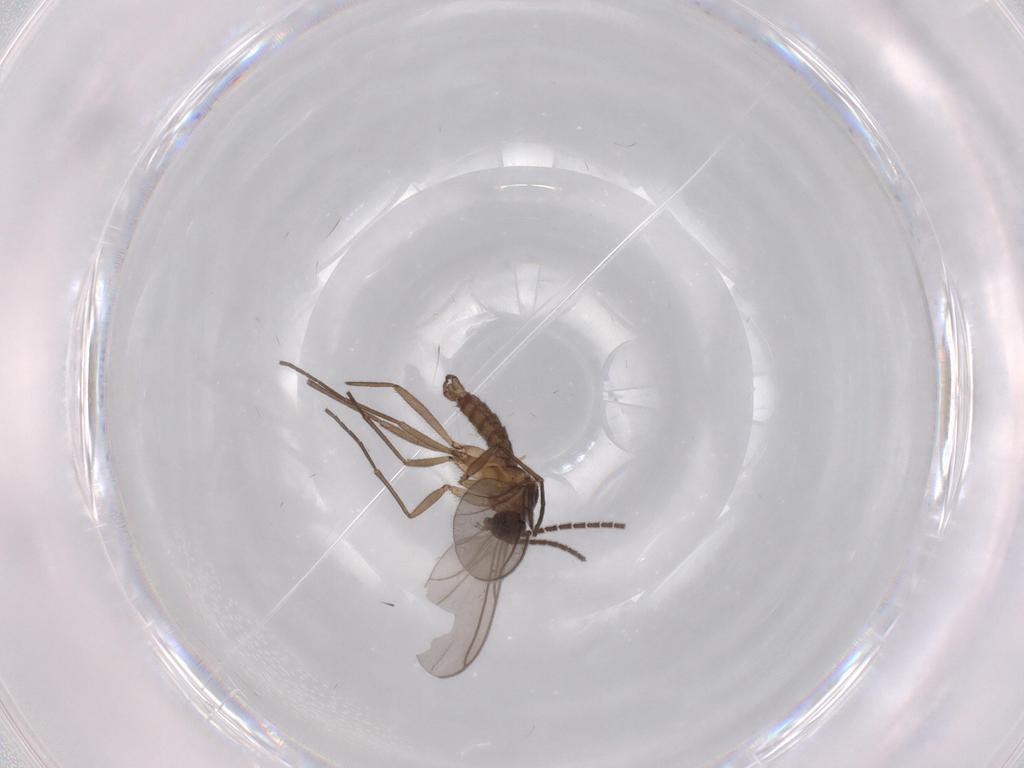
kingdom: Animalia
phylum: Arthropoda
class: Insecta
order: Diptera
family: Sciaridae
